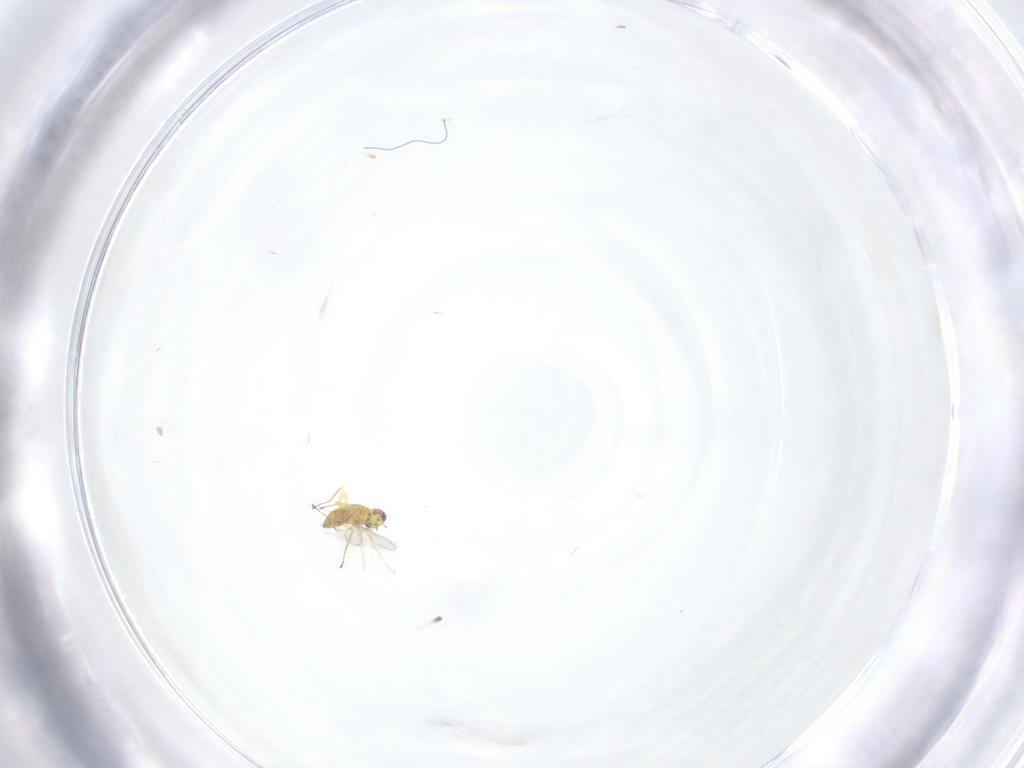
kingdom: Animalia
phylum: Arthropoda
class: Insecta
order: Hymenoptera
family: Mymaridae
